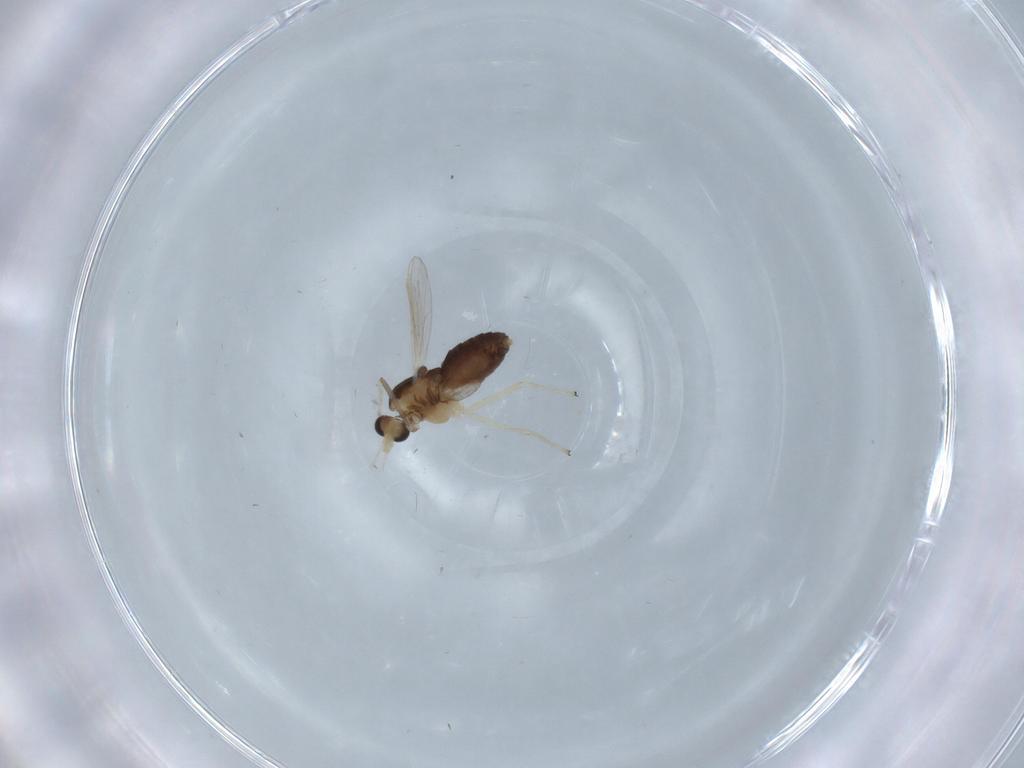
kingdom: Animalia
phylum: Arthropoda
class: Insecta
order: Diptera
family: Chironomidae
